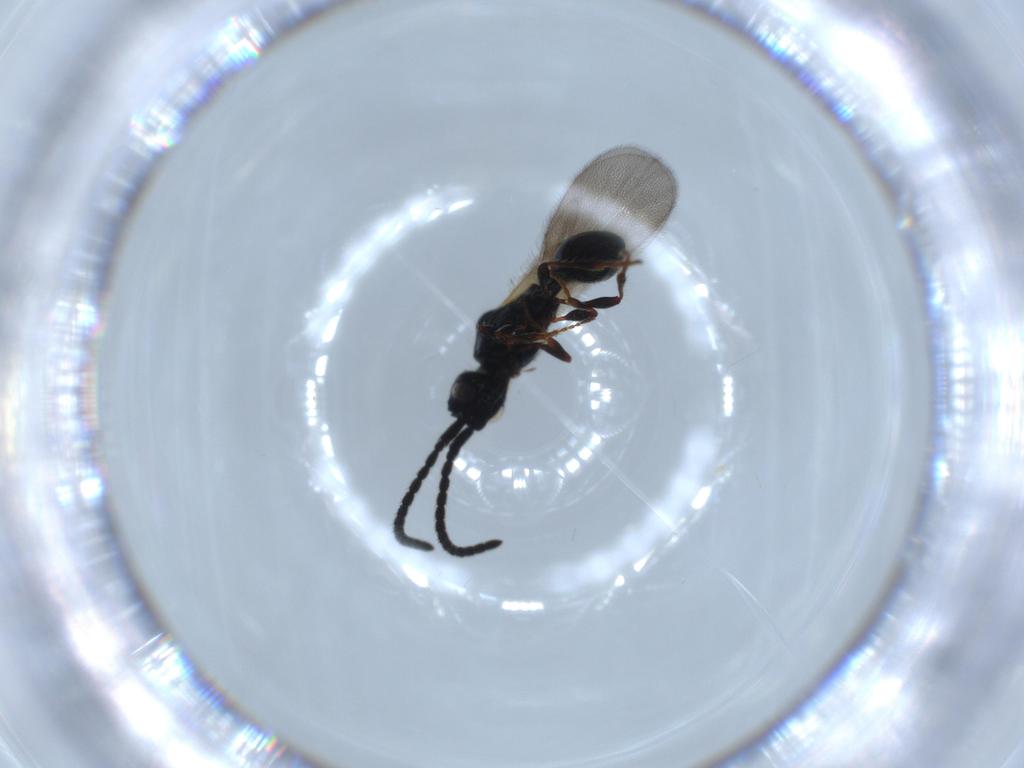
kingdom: Animalia
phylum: Arthropoda
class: Insecta
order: Hymenoptera
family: Diapriidae
